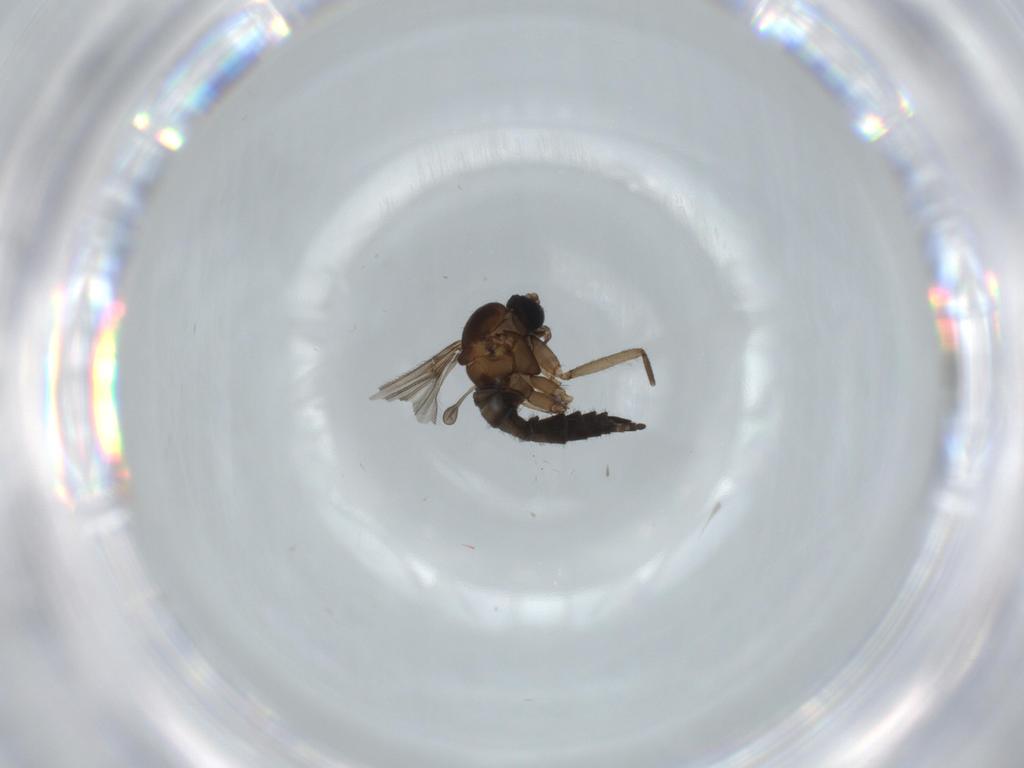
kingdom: Animalia
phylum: Arthropoda
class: Insecta
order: Diptera
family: Sciaridae
